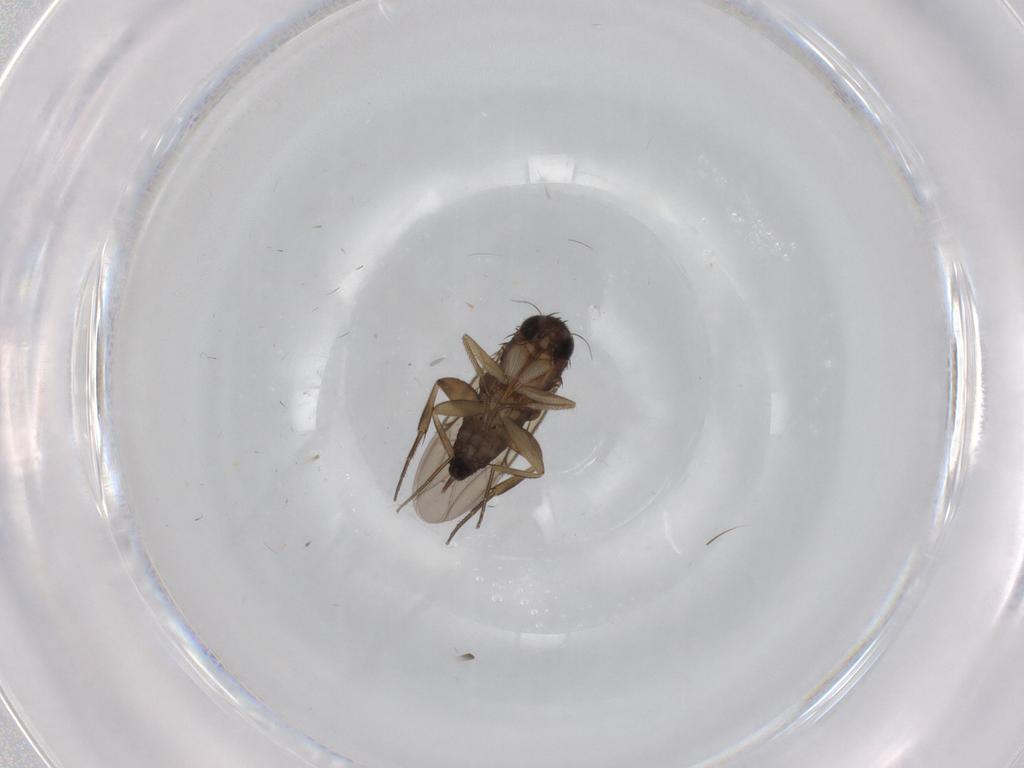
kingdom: Animalia
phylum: Arthropoda
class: Insecta
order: Diptera
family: Phoridae
